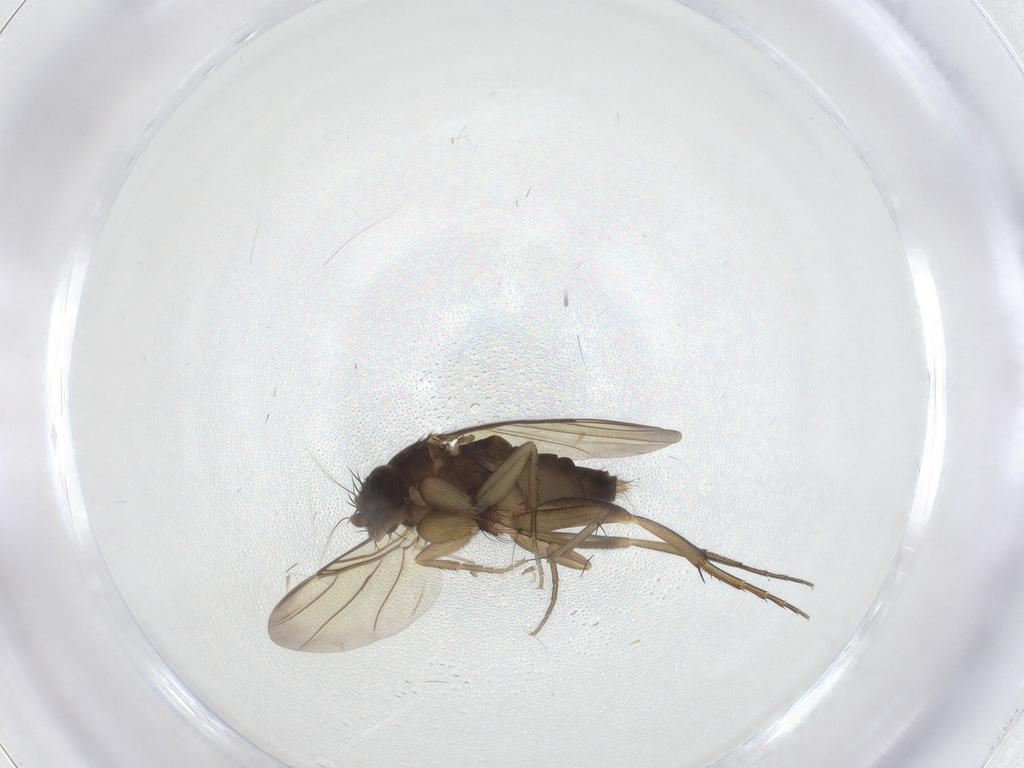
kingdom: Animalia
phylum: Arthropoda
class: Insecta
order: Diptera
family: Phoridae
